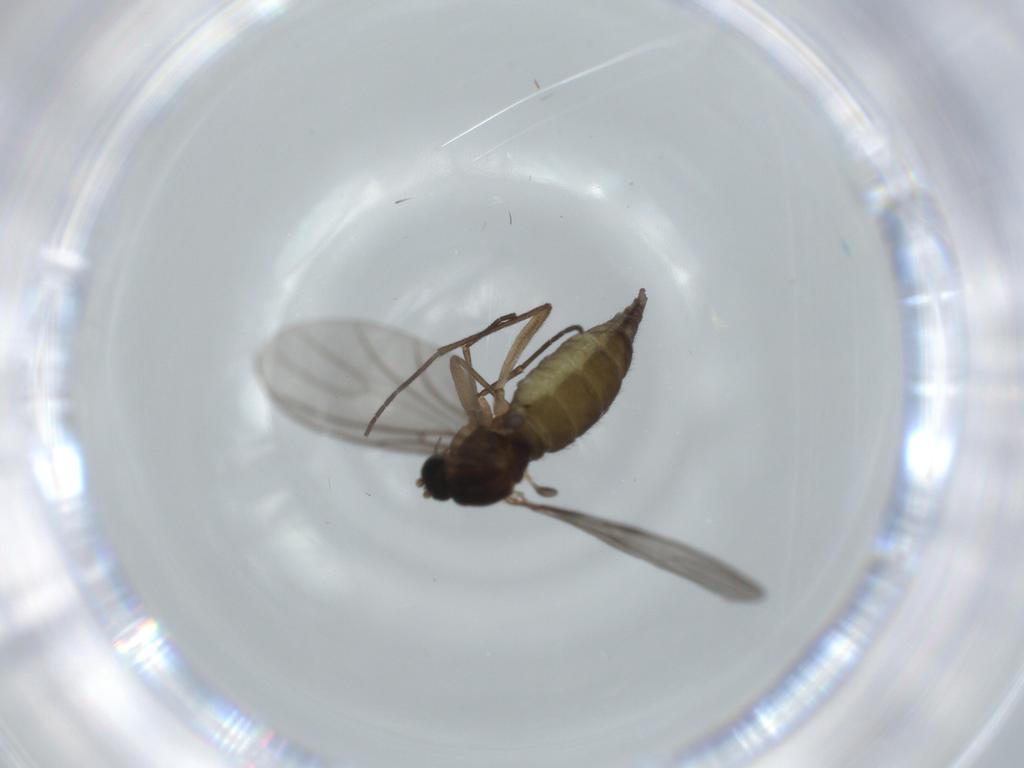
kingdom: Animalia
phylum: Arthropoda
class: Insecta
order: Diptera
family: Sciaridae
